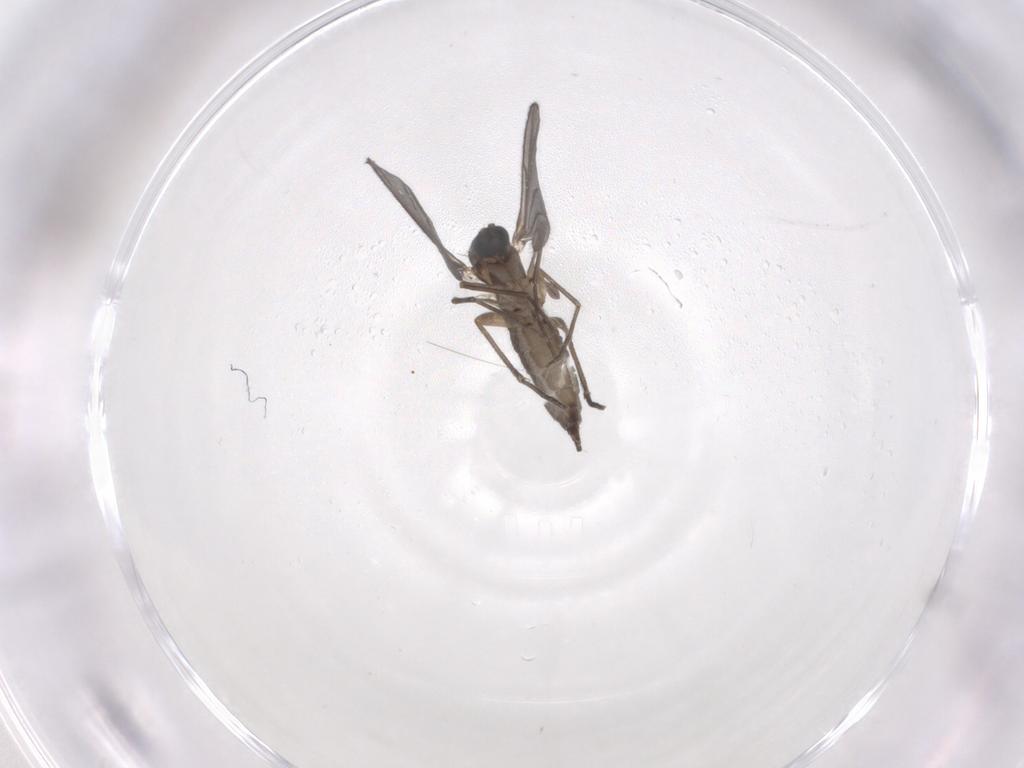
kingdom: Animalia
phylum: Arthropoda
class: Insecta
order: Diptera
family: Sciaridae
